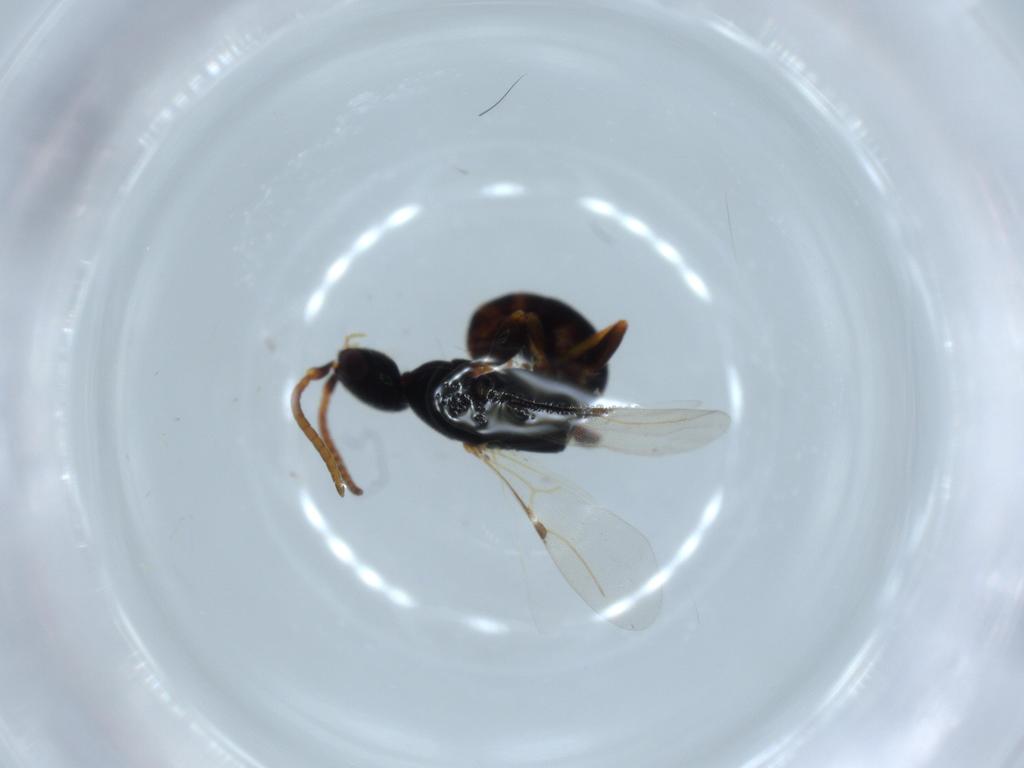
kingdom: Animalia
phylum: Arthropoda
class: Insecta
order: Hymenoptera
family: Bethylidae
